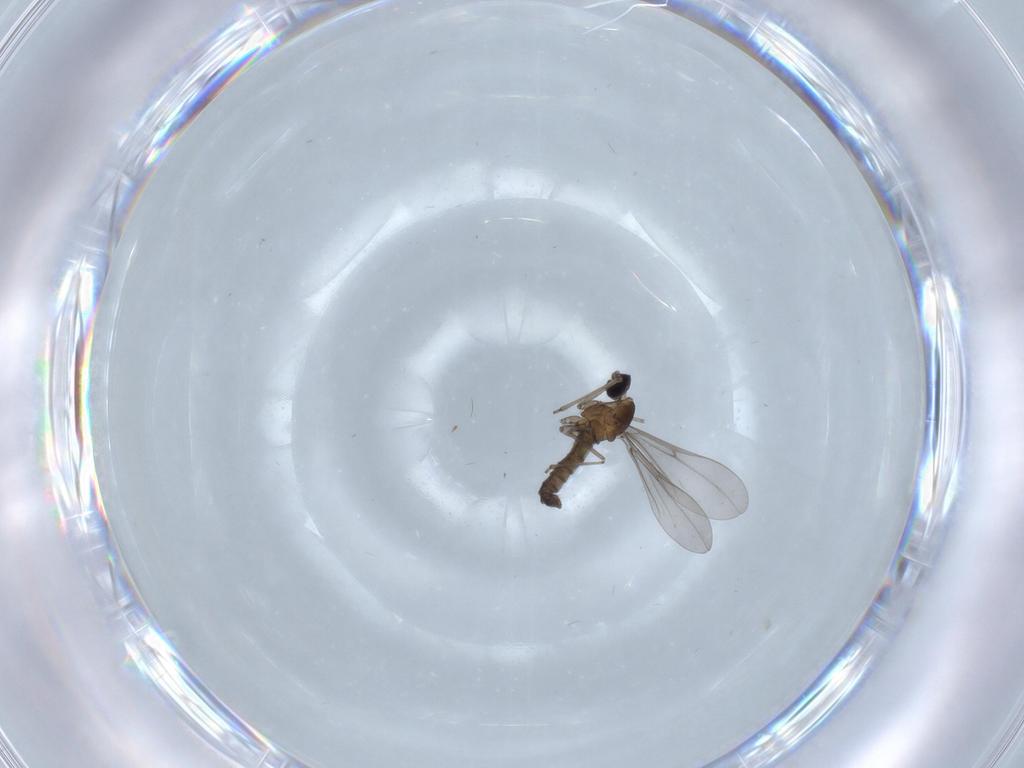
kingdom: Animalia
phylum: Arthropoda
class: Insecta
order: Diptera
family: Cecidomyiidae
